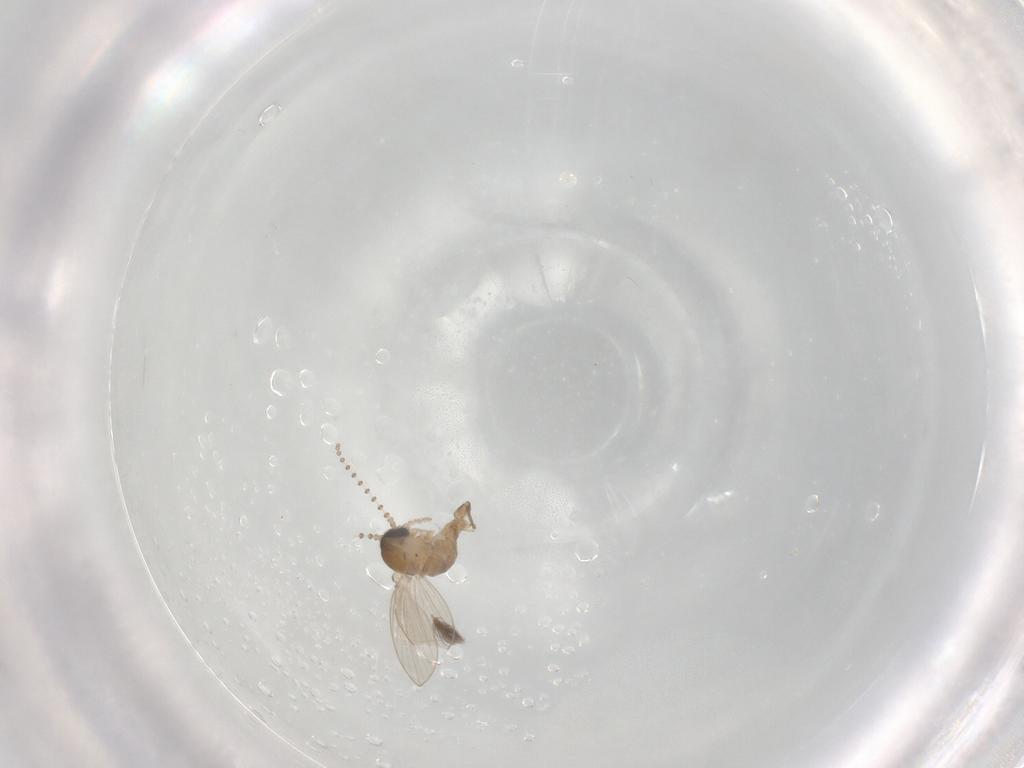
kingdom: Animalia
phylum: Arthropoda
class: Insecta
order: Diptera
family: Psychodidae
